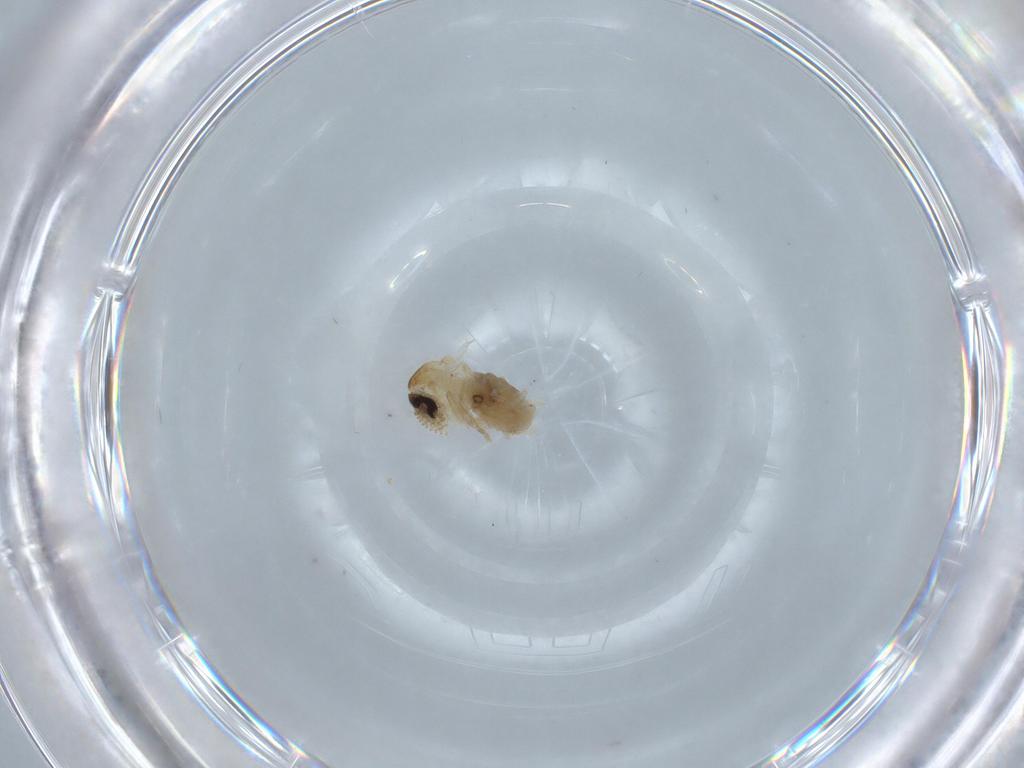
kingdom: Animalia
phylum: Arthropoda
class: Insecta
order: Diptera
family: Psychodidae
